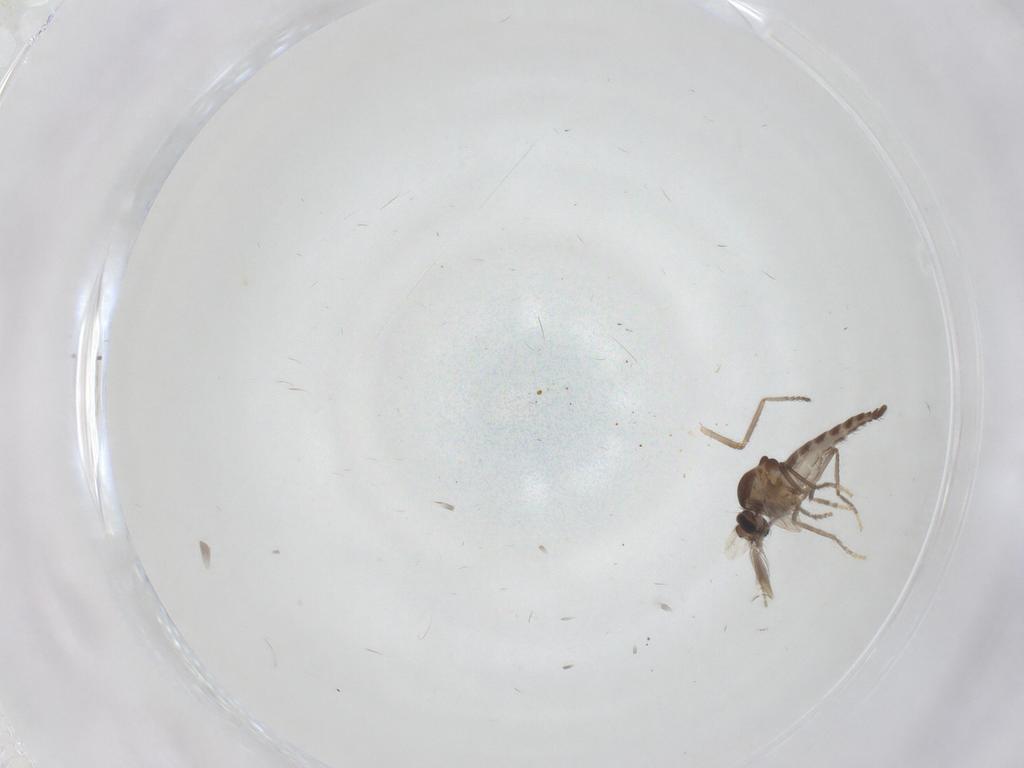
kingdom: Animalia
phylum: Arthropoda
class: Insecta
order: Diptera
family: Ceratopogonidae
